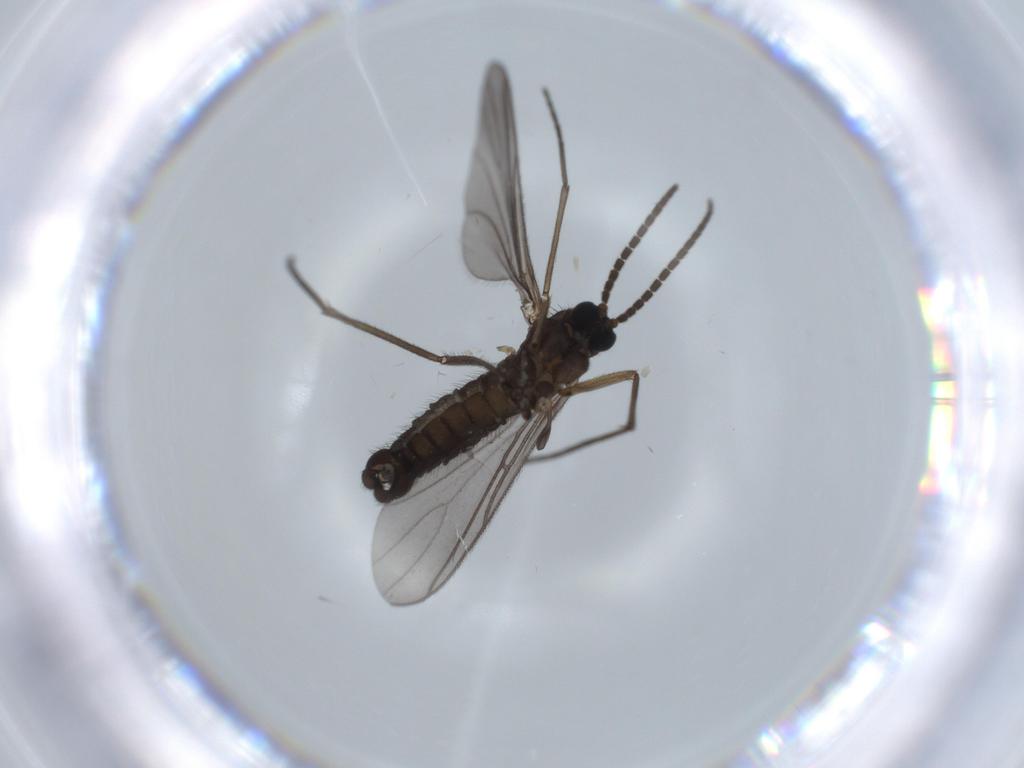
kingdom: Animalia
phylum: Arthropoda
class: Insecta
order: Diptera
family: Sciaridae
